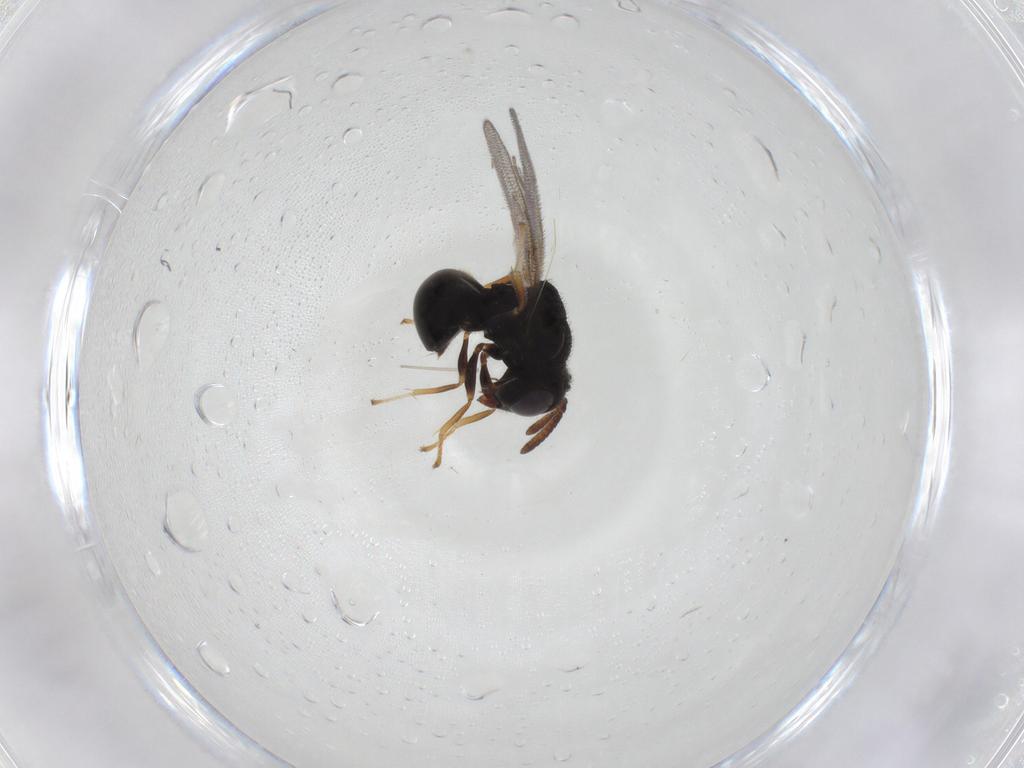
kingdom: Animalia
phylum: Arthropoda
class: Insecta
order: Hymenoptera
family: Perilampidae
